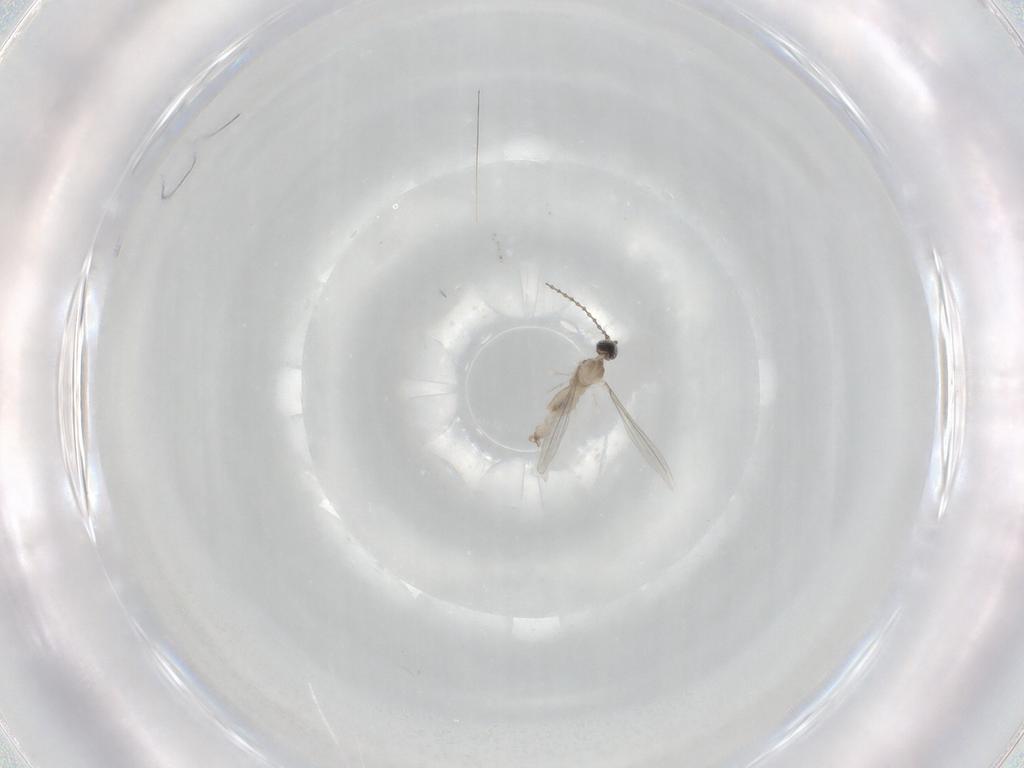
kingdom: Animalia
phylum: Arthropoda
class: Insecta
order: Diptera
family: Cecidomyiidae
